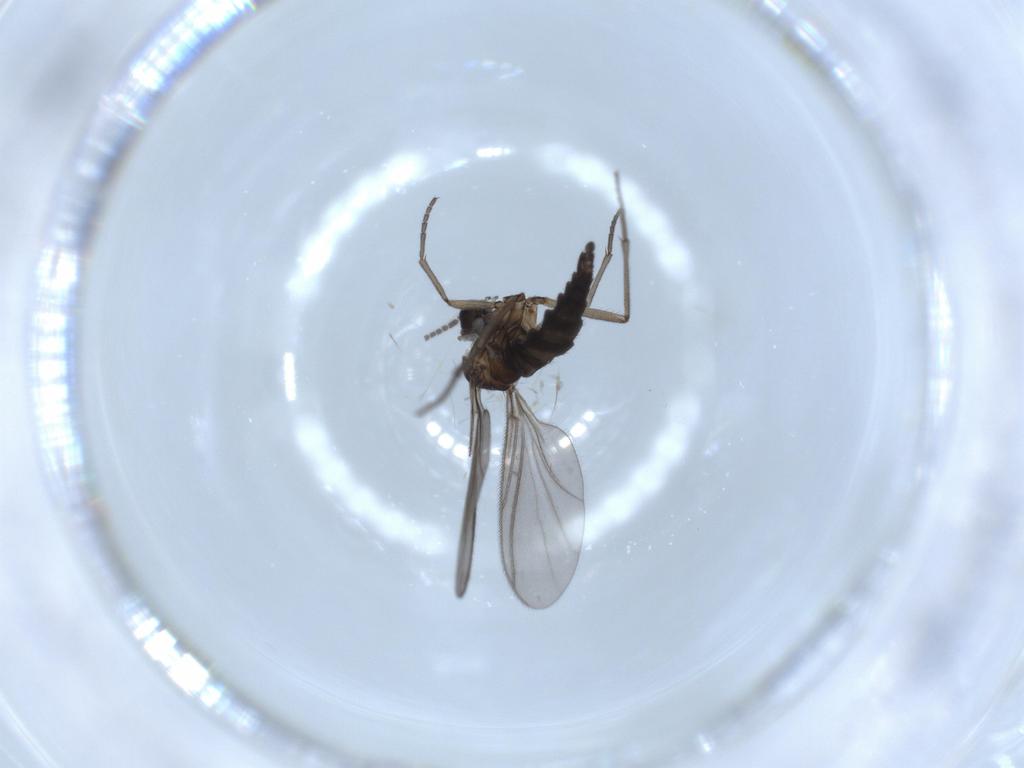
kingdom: Animalia
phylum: Arthropoda
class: Insecta
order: Diptera
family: Sciaridae
